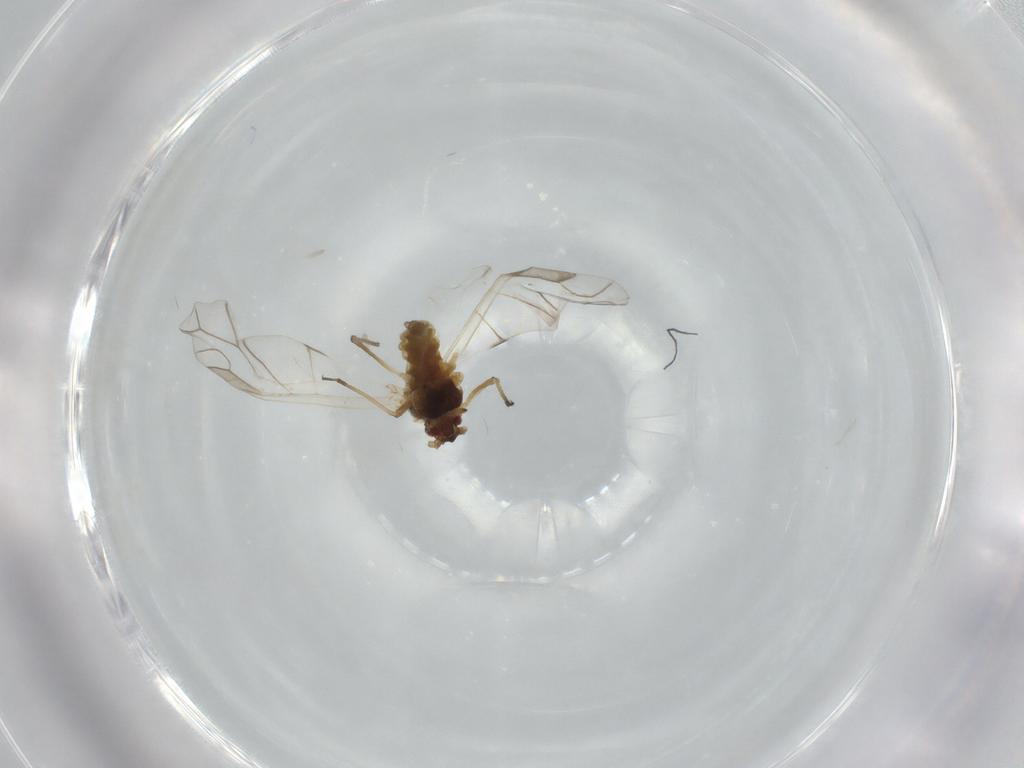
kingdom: Animalia
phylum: Arthropoda
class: Insecta
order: Hemiptera
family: Aphididae
